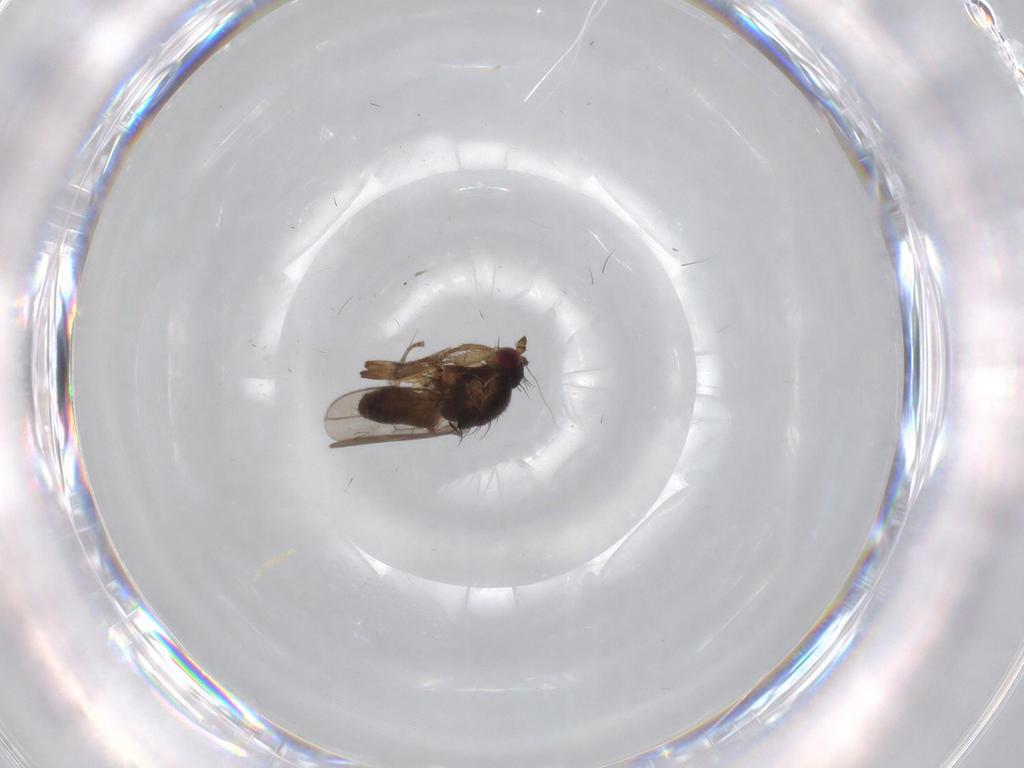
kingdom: Animalia
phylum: Arthropoda
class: Insecta
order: Diptera
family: Sphaeroceridae
